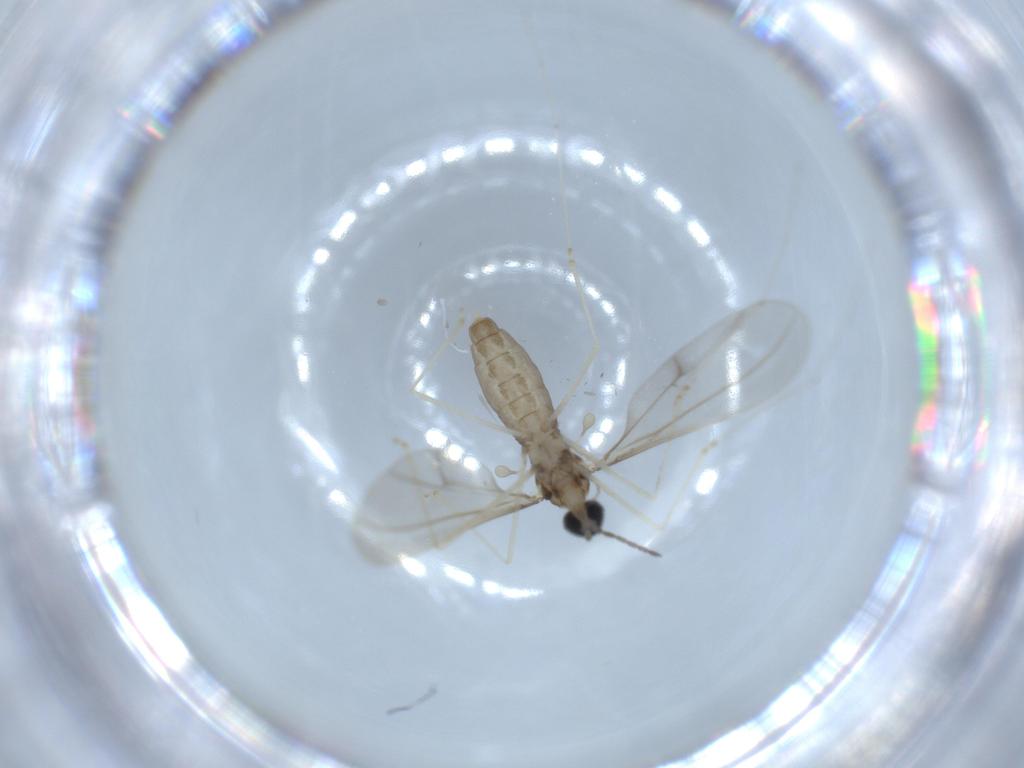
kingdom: Animalia
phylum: Arthropoda
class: Insecta
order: Diptera
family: Cecidomyiidae
